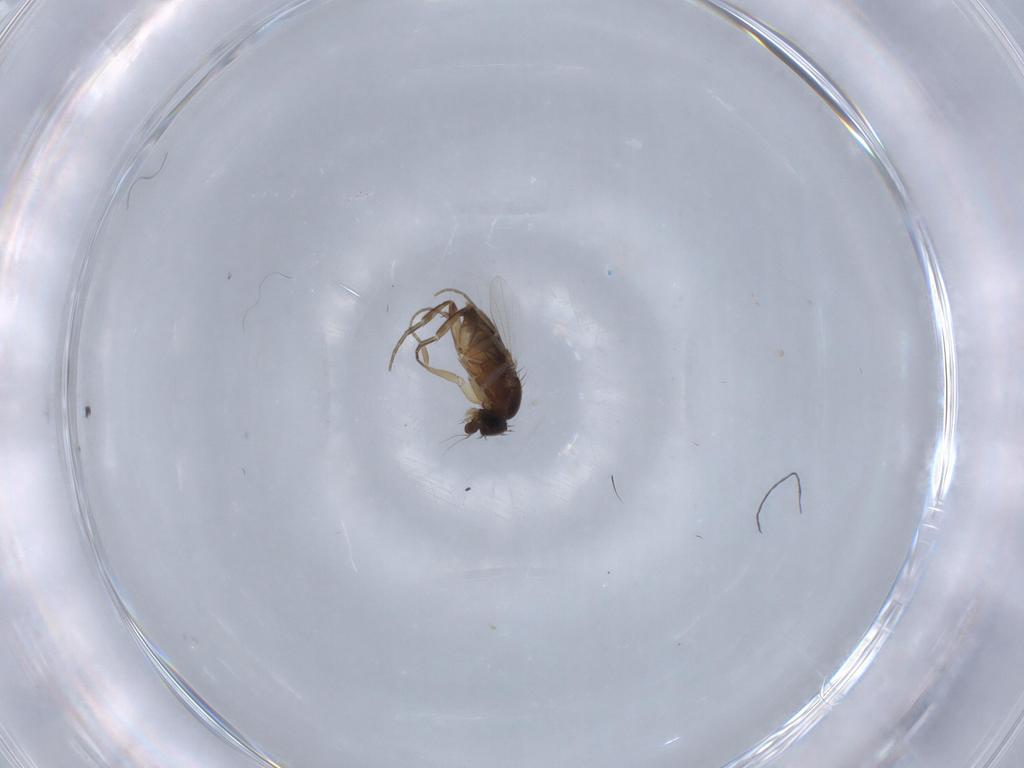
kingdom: Animalia
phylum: Arthropoda
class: Insecta
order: Diptera
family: Phoridae
